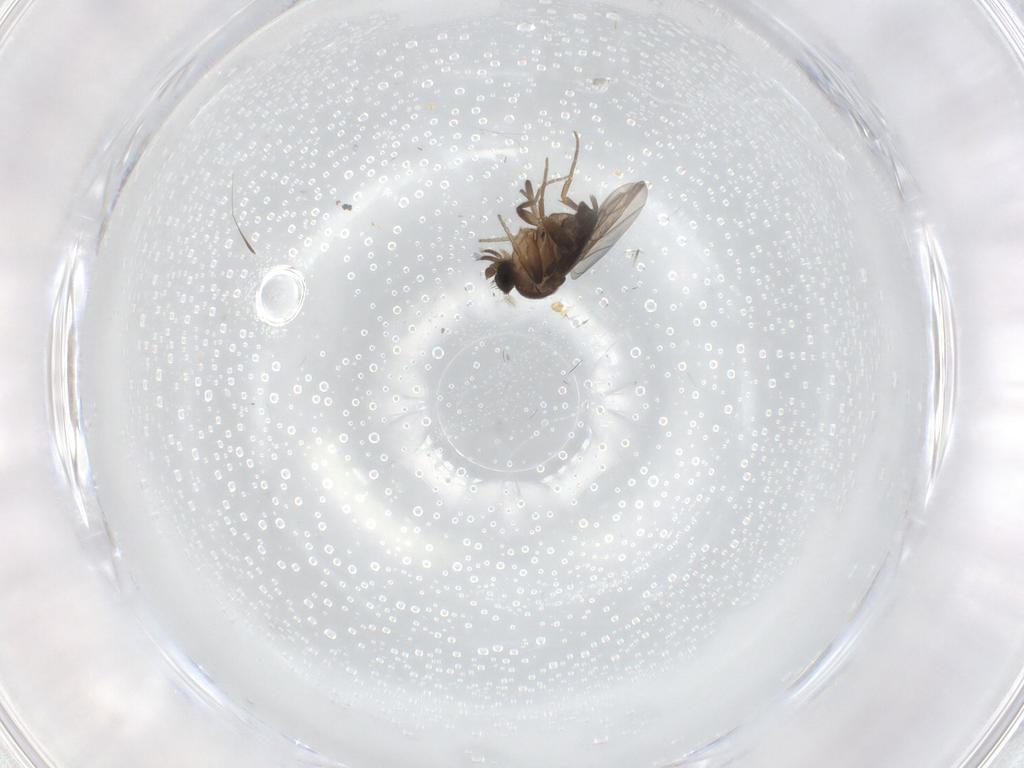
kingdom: Animalia
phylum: Arthropoda
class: Insecta
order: Diptera
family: Phoridae
